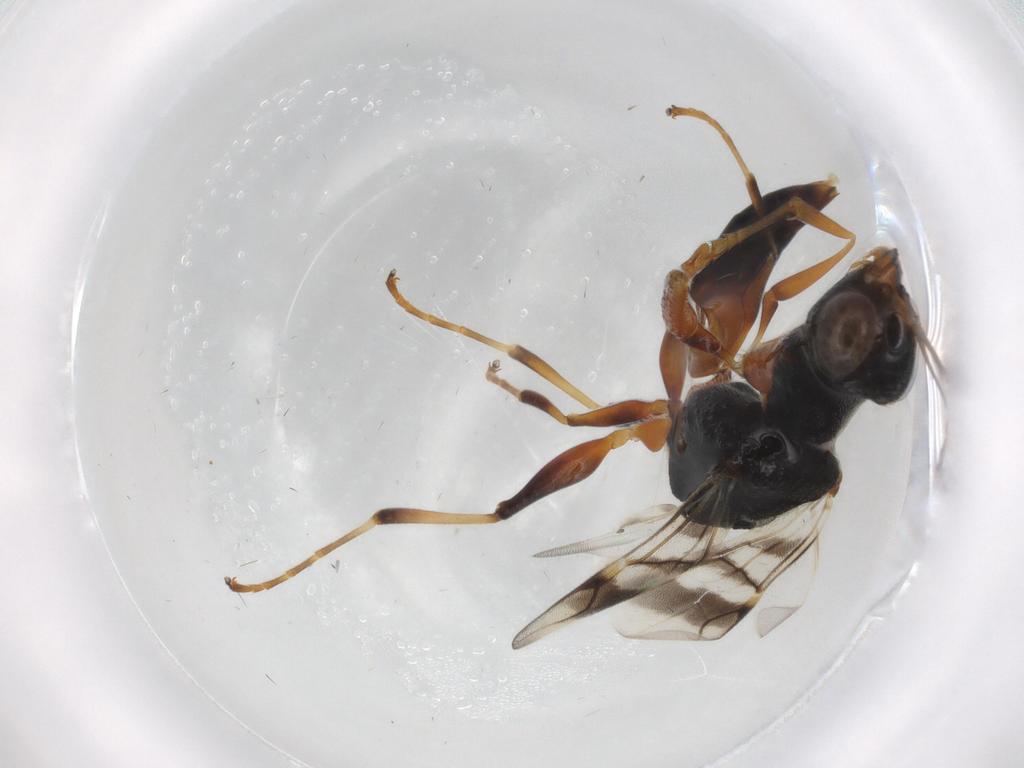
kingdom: Animalia
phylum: Arthropoda
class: Insecta
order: Hymenoptera
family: Dryinidae
